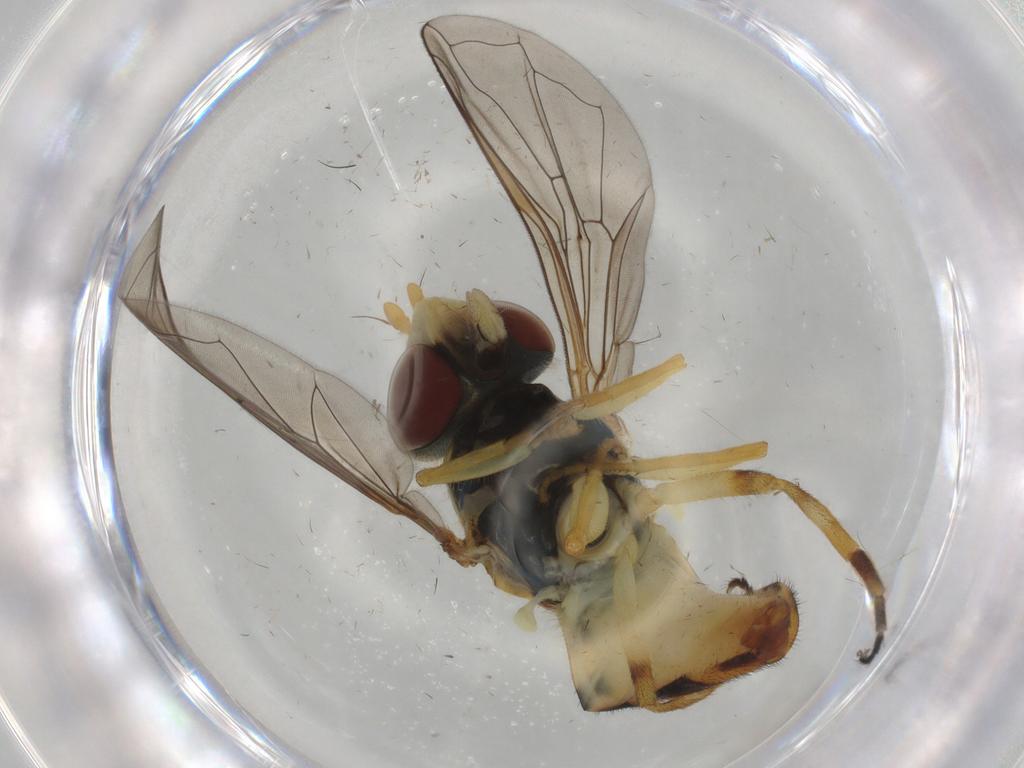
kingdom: Animalia
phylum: Arthropoda
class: Insecta
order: Diptera
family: Syrphidae
